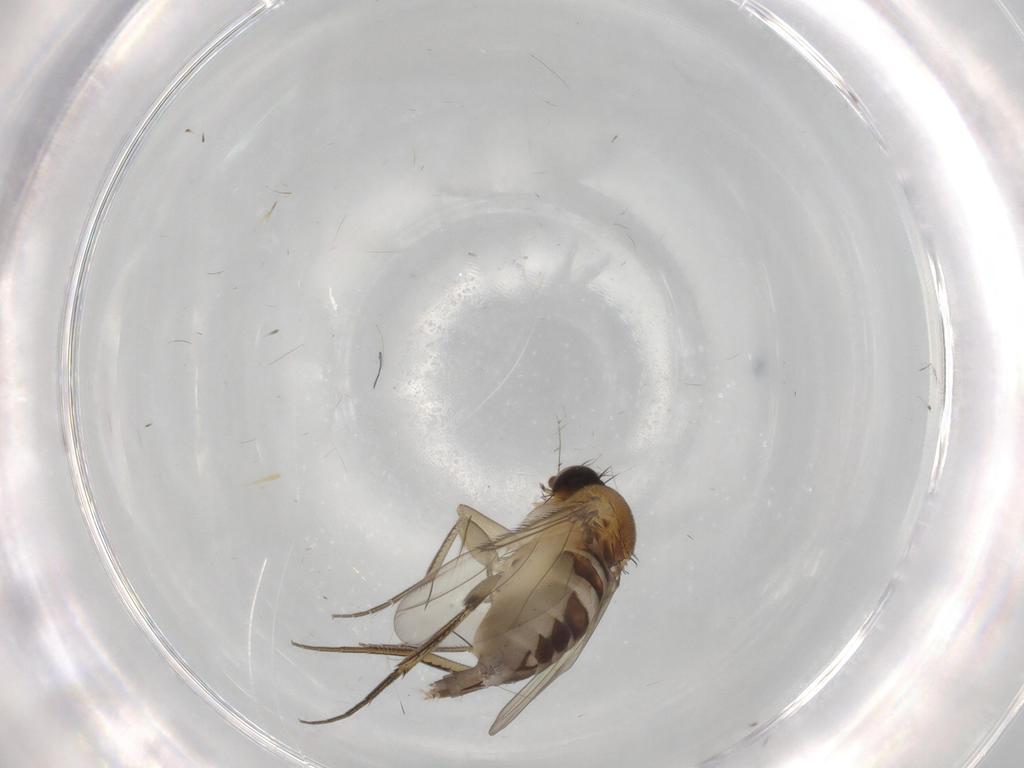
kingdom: Animalia
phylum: Arthropoda
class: Insecta
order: Diptera
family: Phoridae
